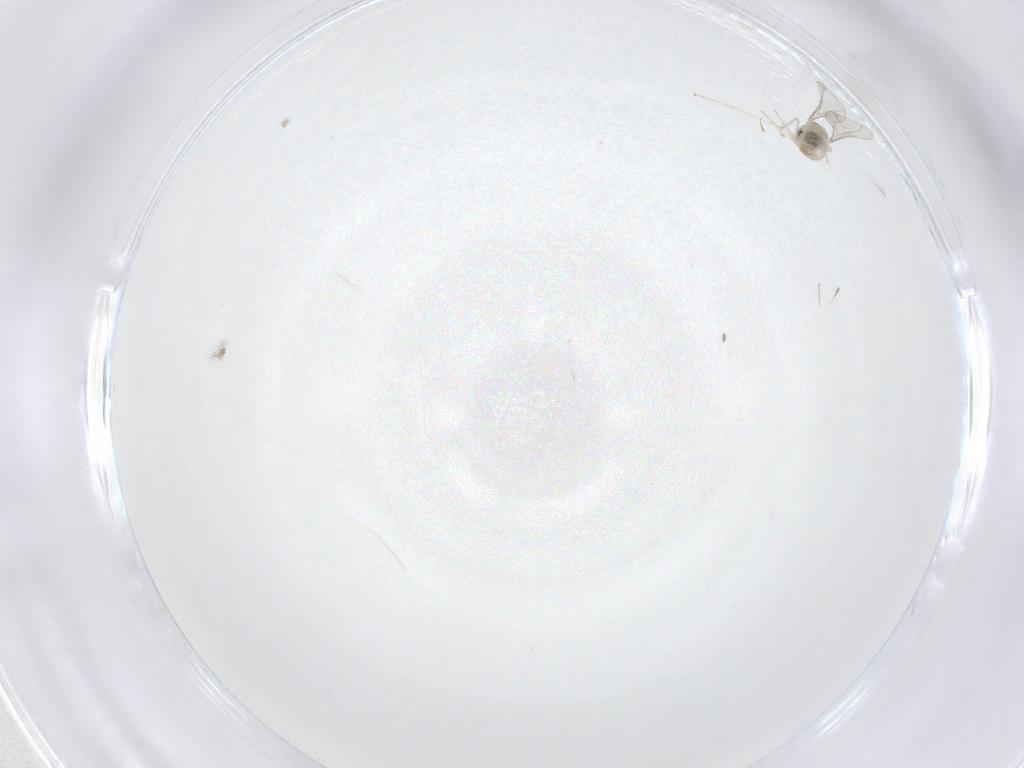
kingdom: Animalia
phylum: Arthropoda
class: Insecta
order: Diptera
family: Cecidomyiidae
